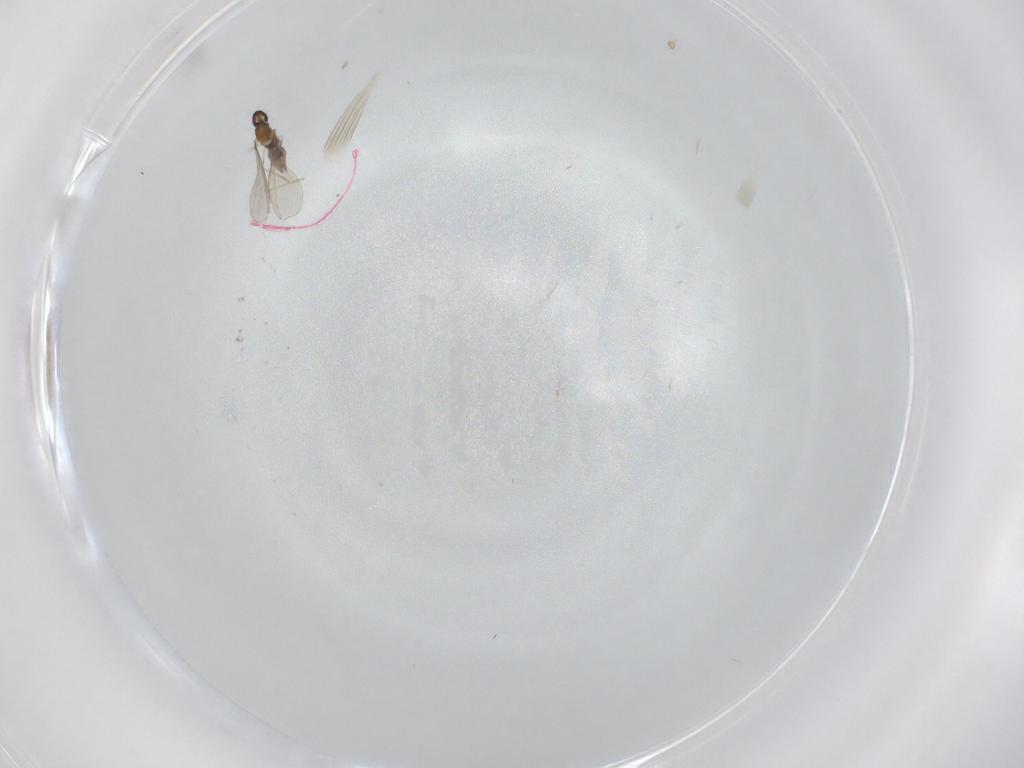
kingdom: Animalia
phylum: Arthropoda
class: Insecta
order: Diptera
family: Cecidomyiidae
